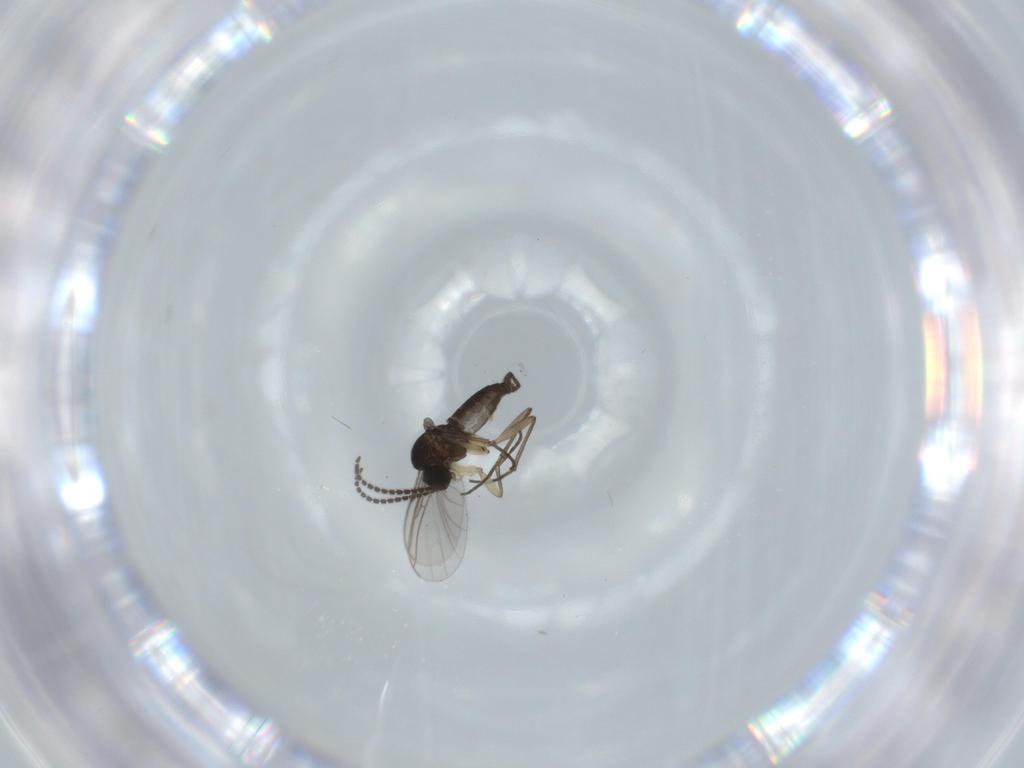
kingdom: Animalia
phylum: Arthropoda
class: Insecta
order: Diptera
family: Sciaridae
